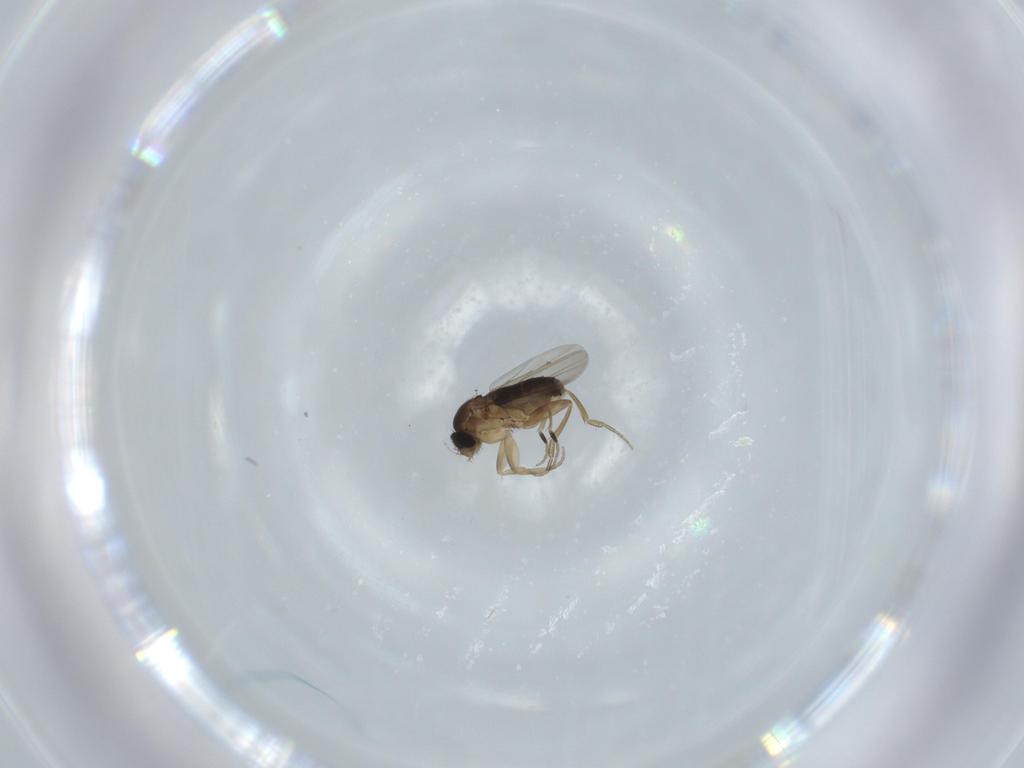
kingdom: Animalia
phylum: Arthropoda
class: Insecta
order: Diptera
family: Phoridae
